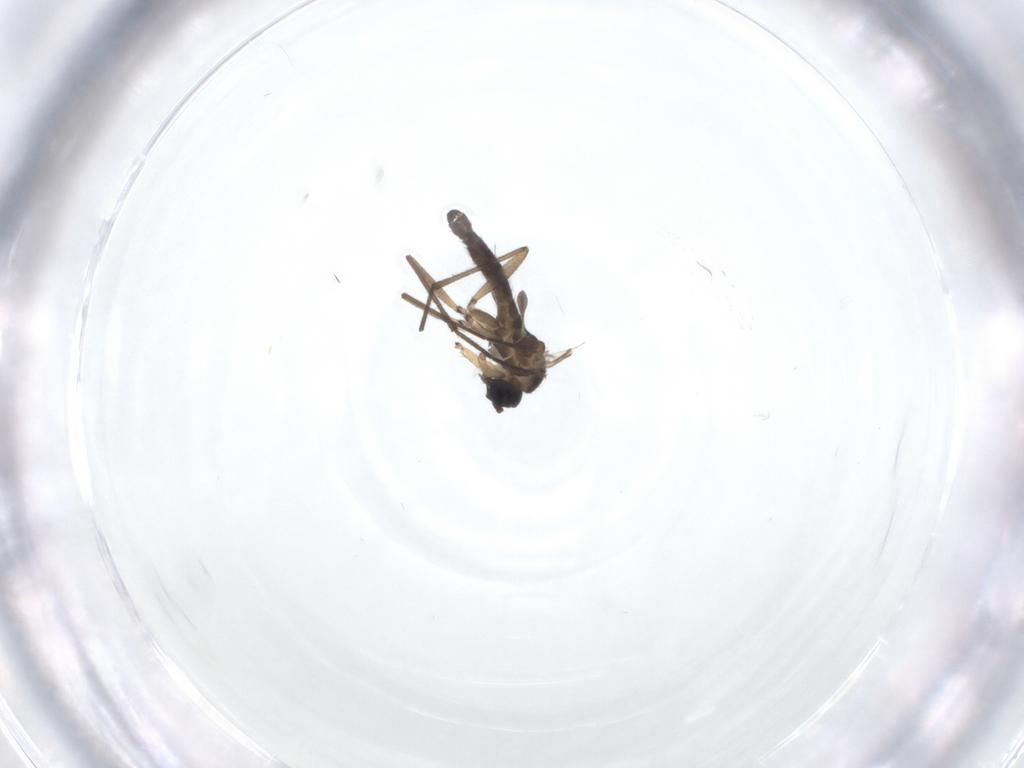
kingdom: Animalia
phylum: Arthropoda
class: Insecta
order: Diptera
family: Sciaridae
